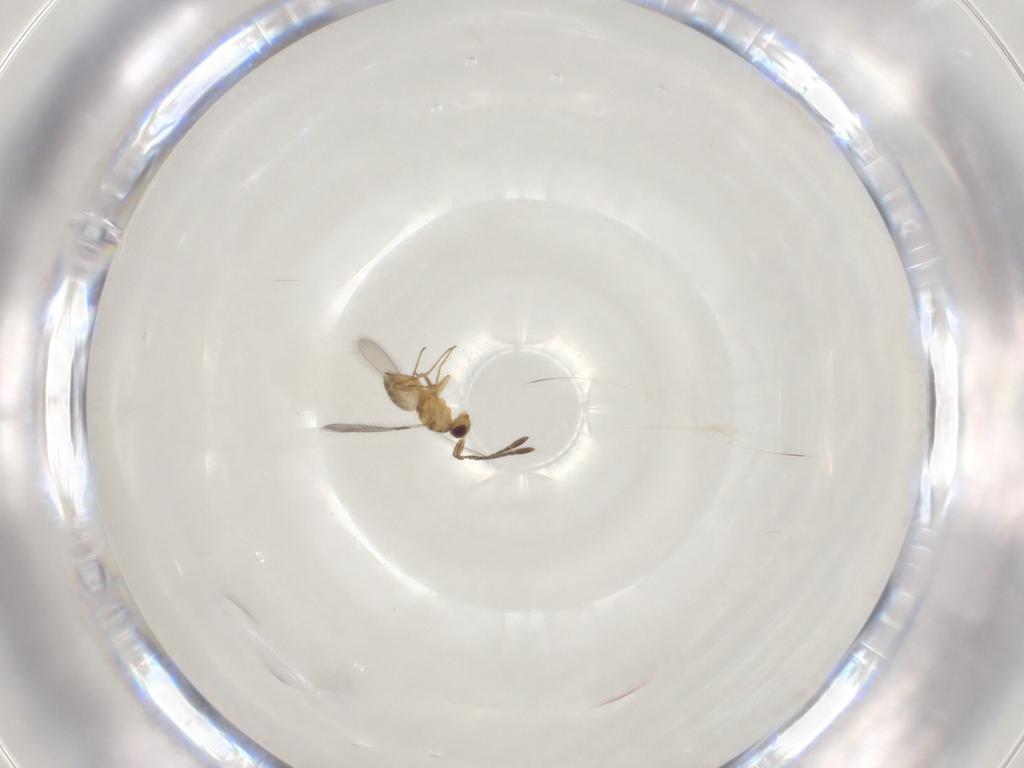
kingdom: Animalia
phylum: Arthropoda
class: Insecta
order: Hymenoptera
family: Mymaridae
